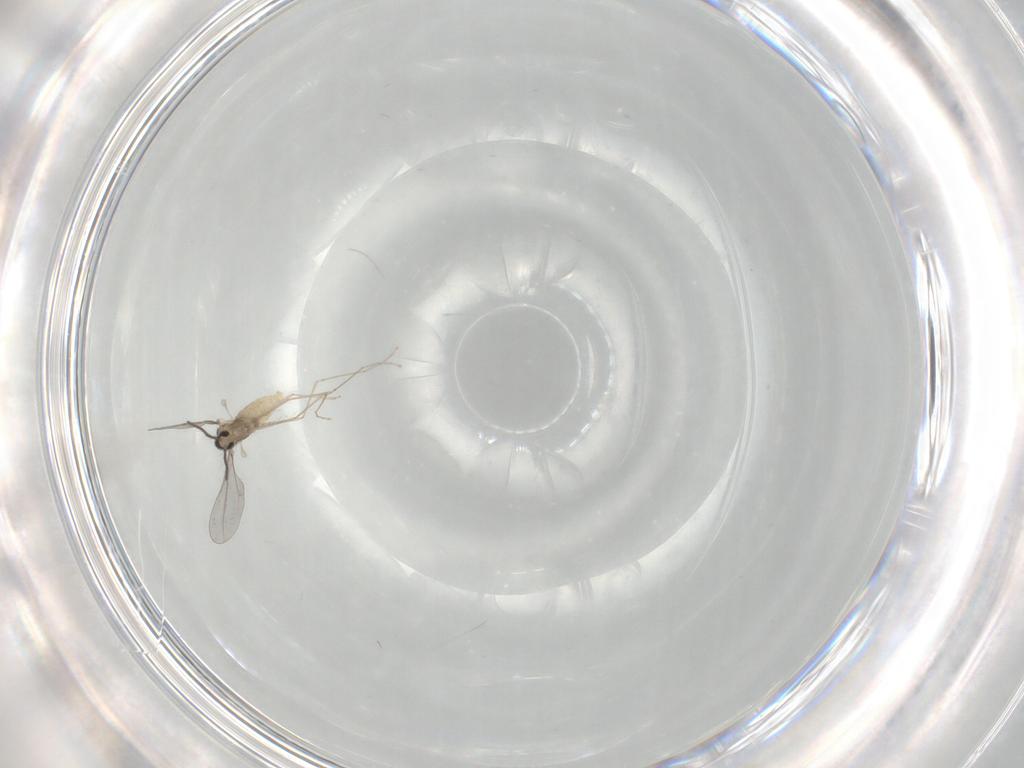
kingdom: Animalia
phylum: Arthropoda
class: Insecta
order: Diptera
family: Cecidomyiidae
